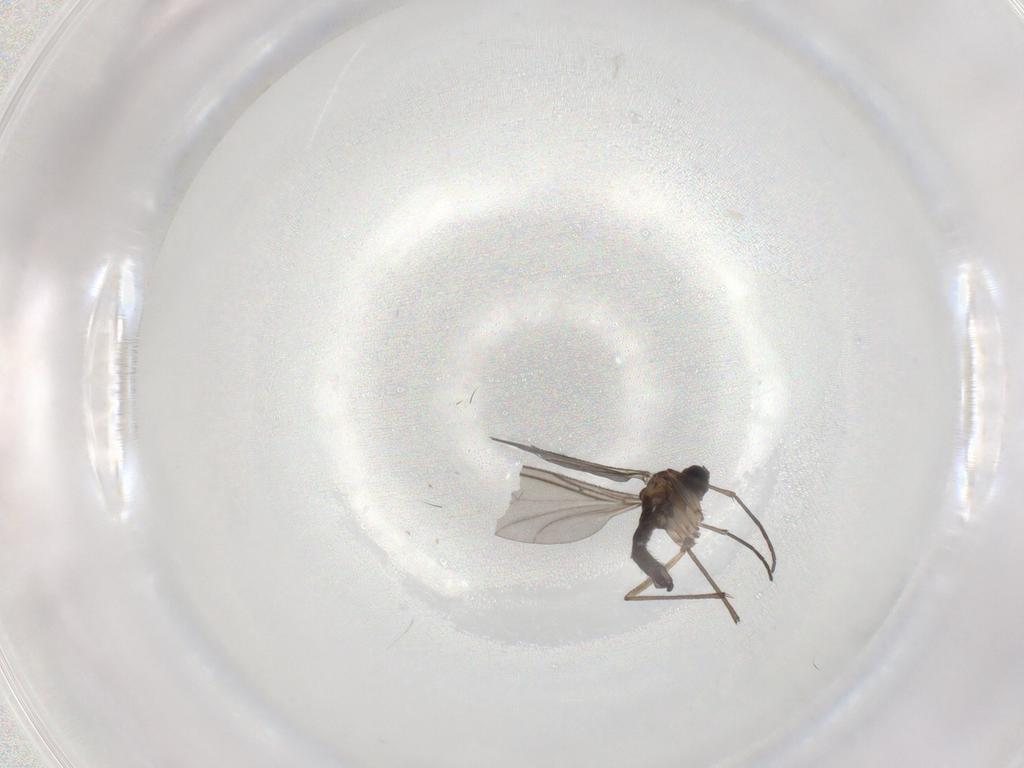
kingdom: Animalia
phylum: Arthropoda
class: Insecta
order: Diptera
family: Sciaridae
